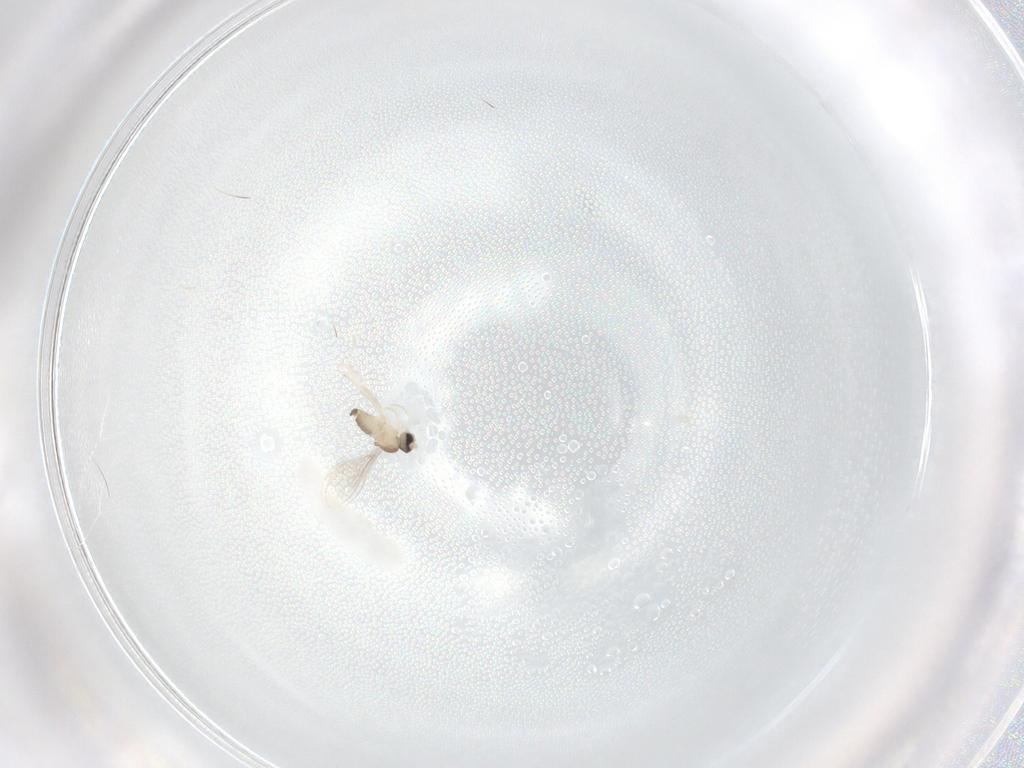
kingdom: Animalia
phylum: Arthropoda
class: Insecta
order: Diptera
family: Cecidomyiidae
